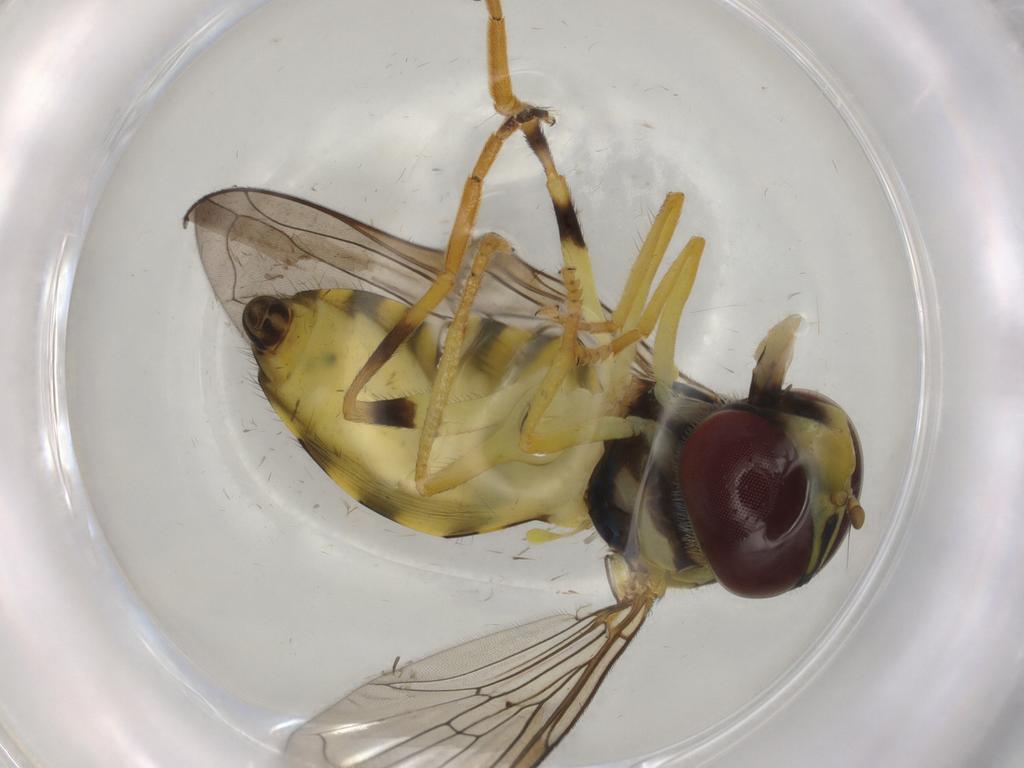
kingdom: Animalia
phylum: Arthropoda
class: Insecta
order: Diptera
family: Syrphidae
